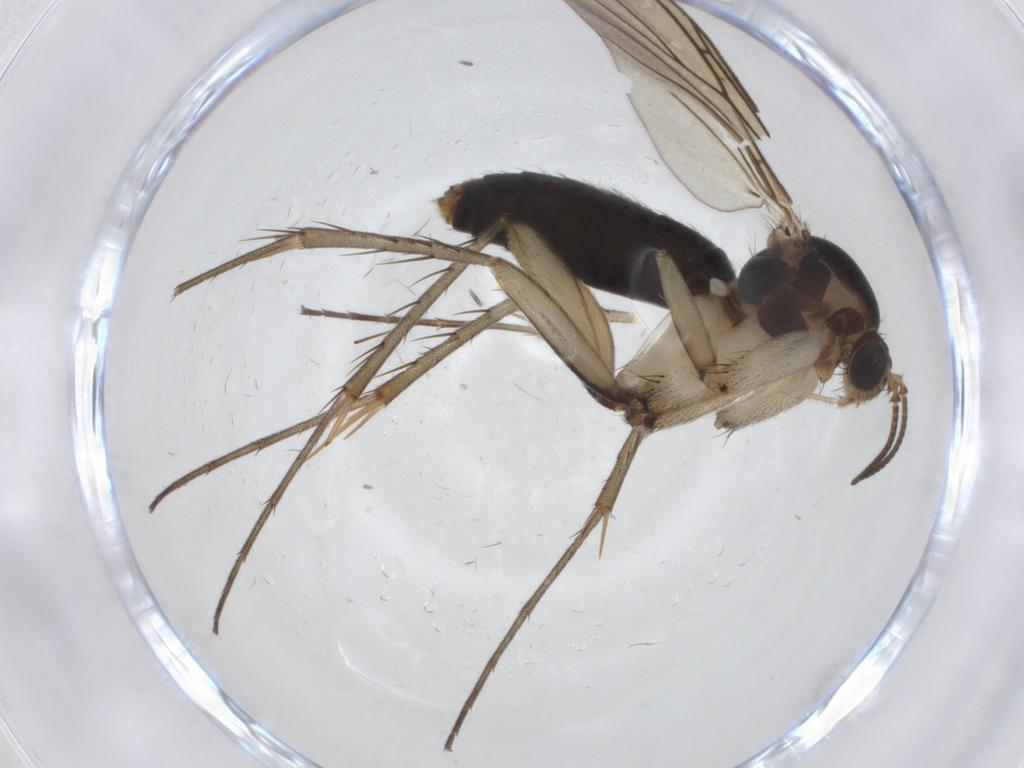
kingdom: Animalia
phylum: Arthropoda
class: Insecta
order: Diptera
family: Mycetophilidae
